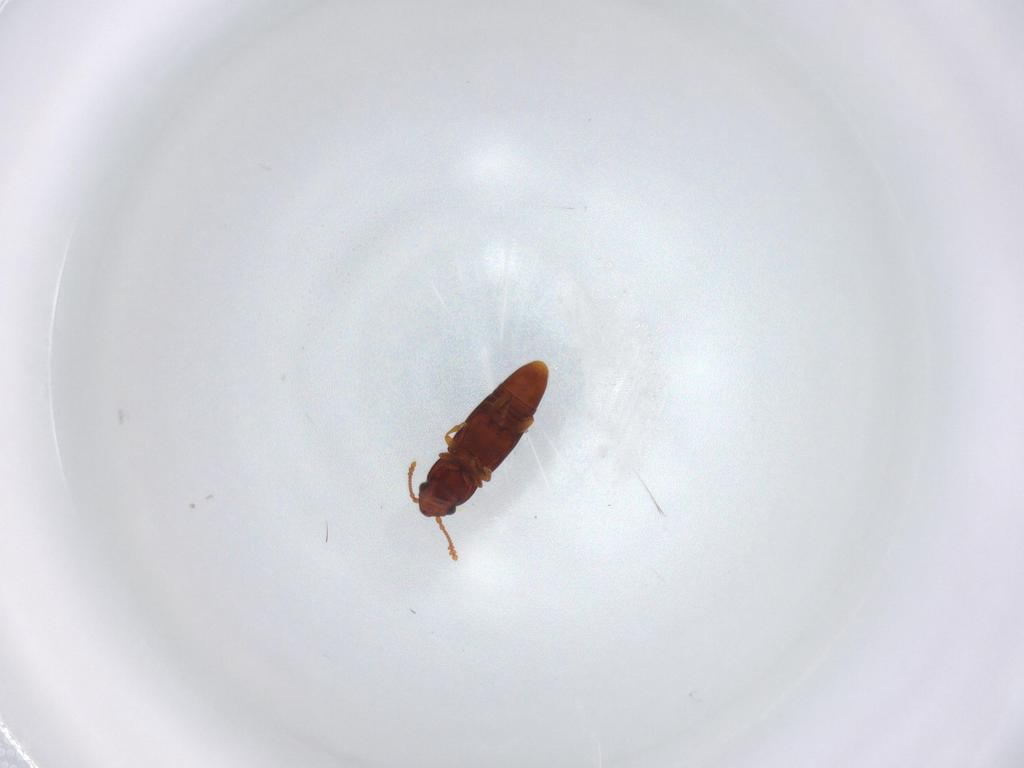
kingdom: Animalia
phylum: Arthropoda
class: Insecta
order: Coleoptera
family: Smicripidae
